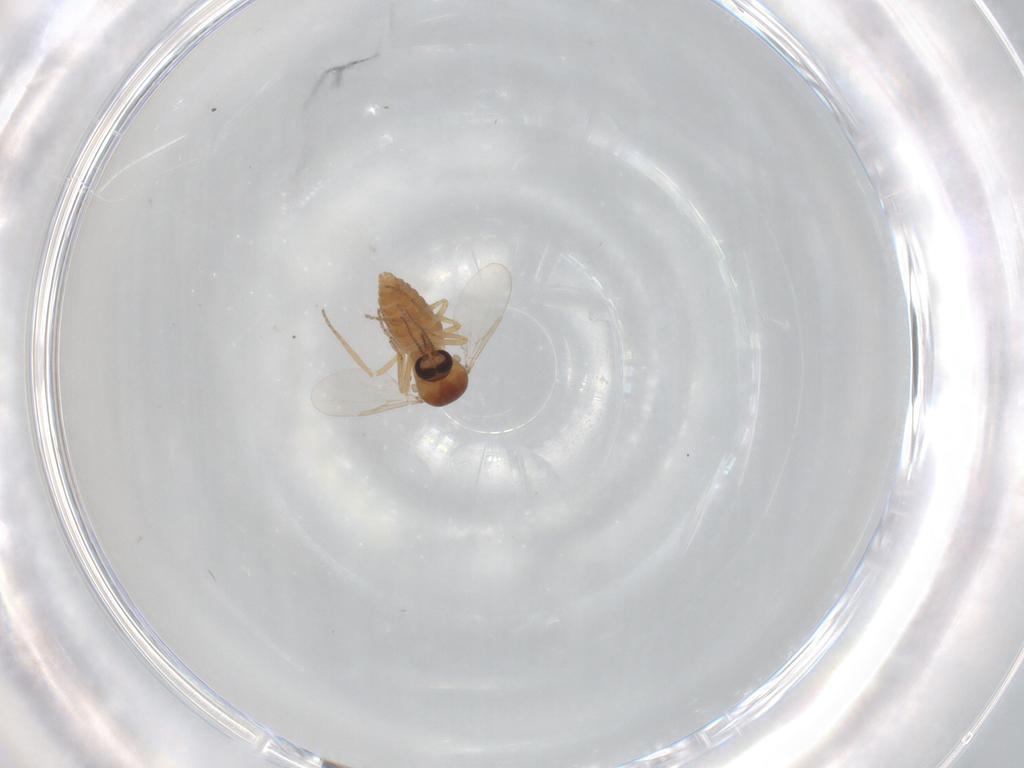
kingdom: Animalia
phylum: Arthropoda
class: Insecta
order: Diptera
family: Ceratopogonidae
